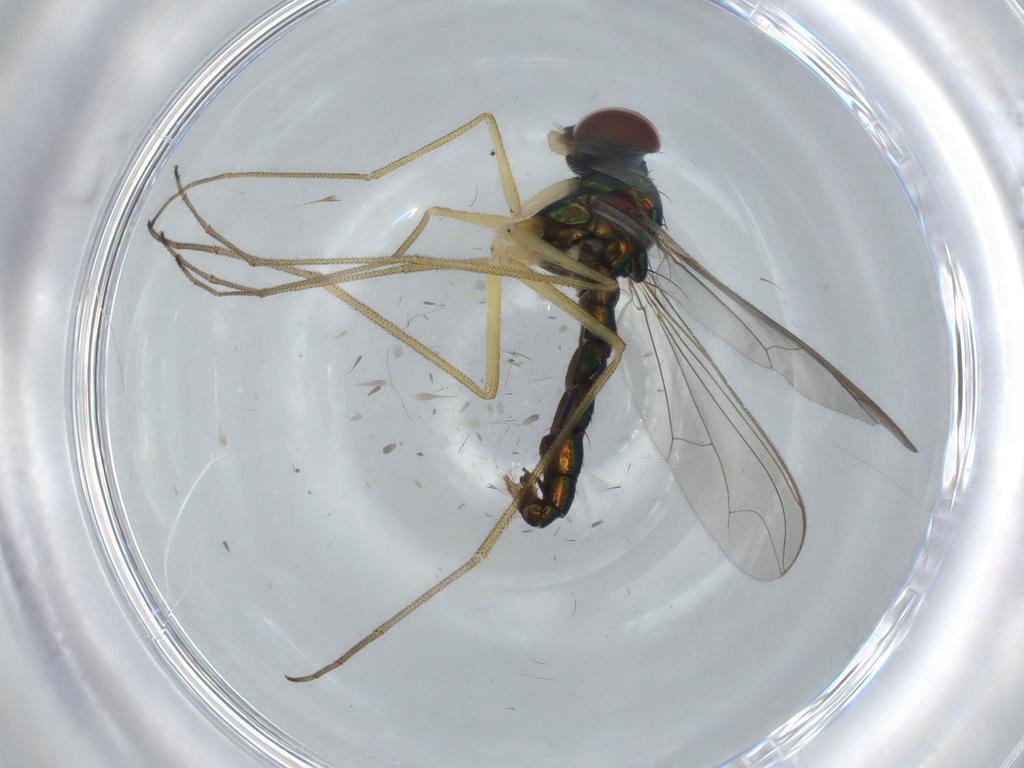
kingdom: Animalia
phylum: Arthropoda
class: Insecta
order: Diptera
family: Dolichopodidae
